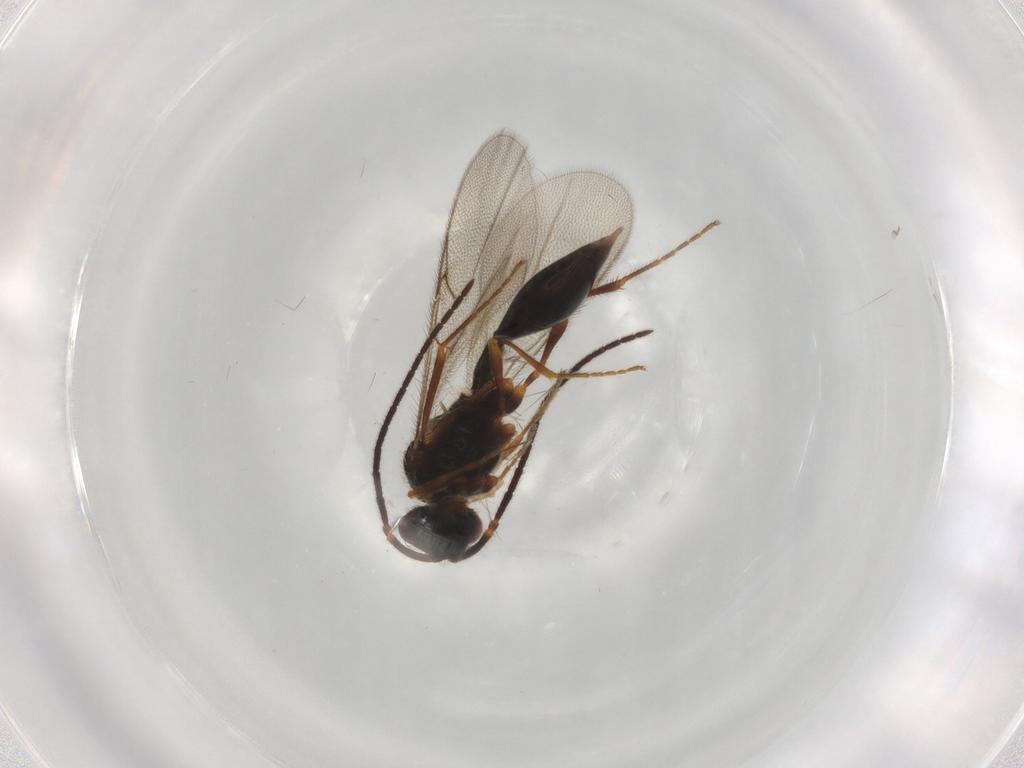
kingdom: Animalia
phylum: Arthropoda
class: Insecta
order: Hymenoptera
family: Scoliidae
